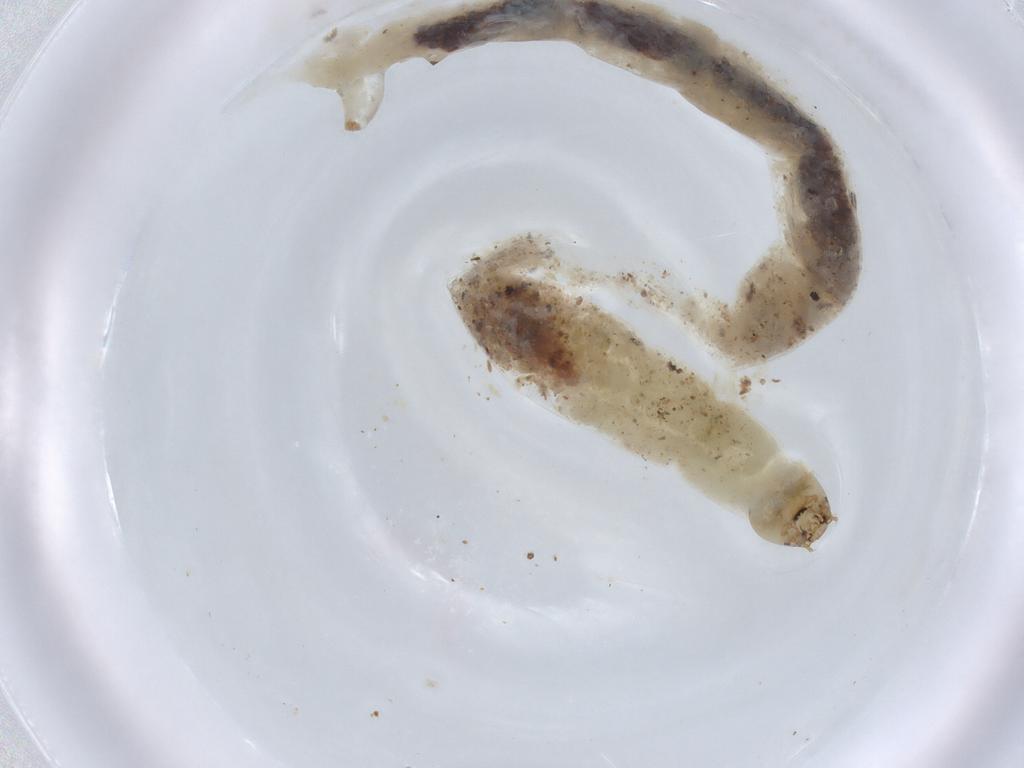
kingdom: Animalia
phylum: Arthropoda
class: Insecta
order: Diptera
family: Chironomidae
